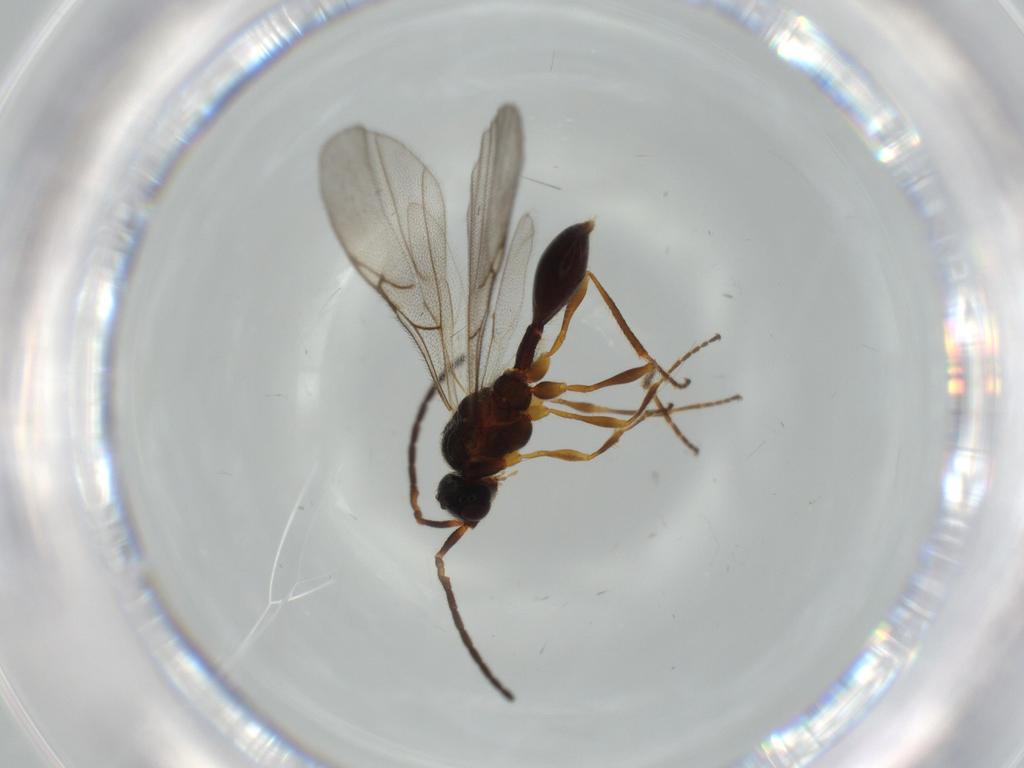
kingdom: Animalia
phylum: Arthropoda
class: Insecta
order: Hymenoptera
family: Diapriidae
